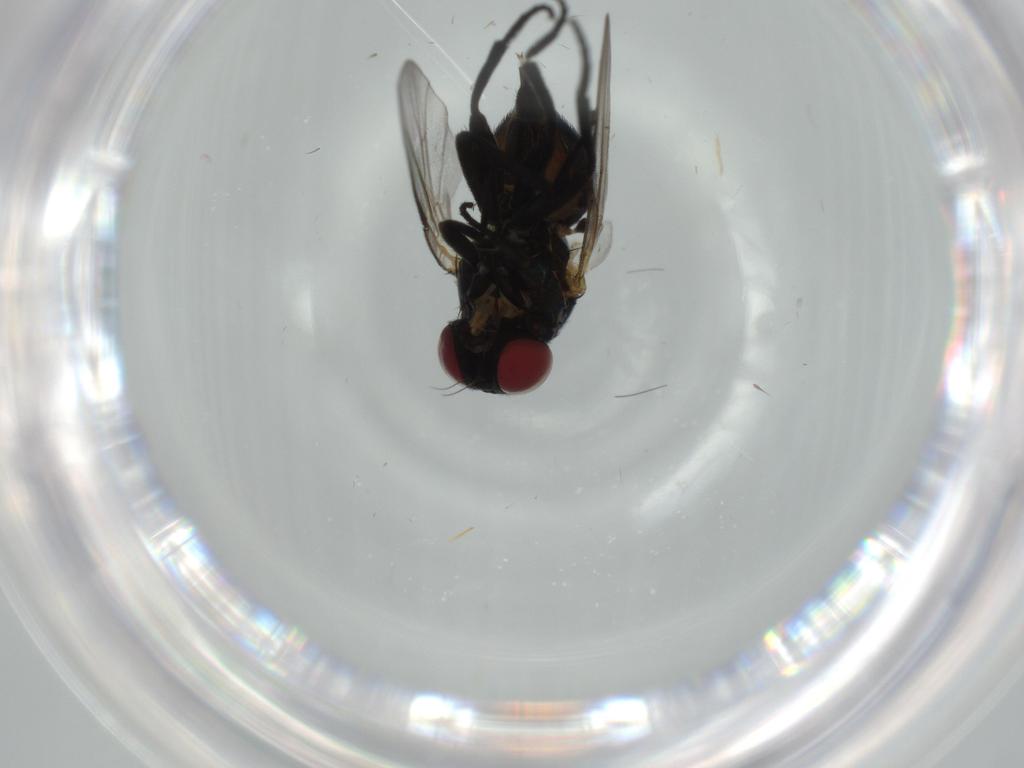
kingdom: Animalia
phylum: Arthropoda
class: Insecta
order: Diptera
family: Phoridae
